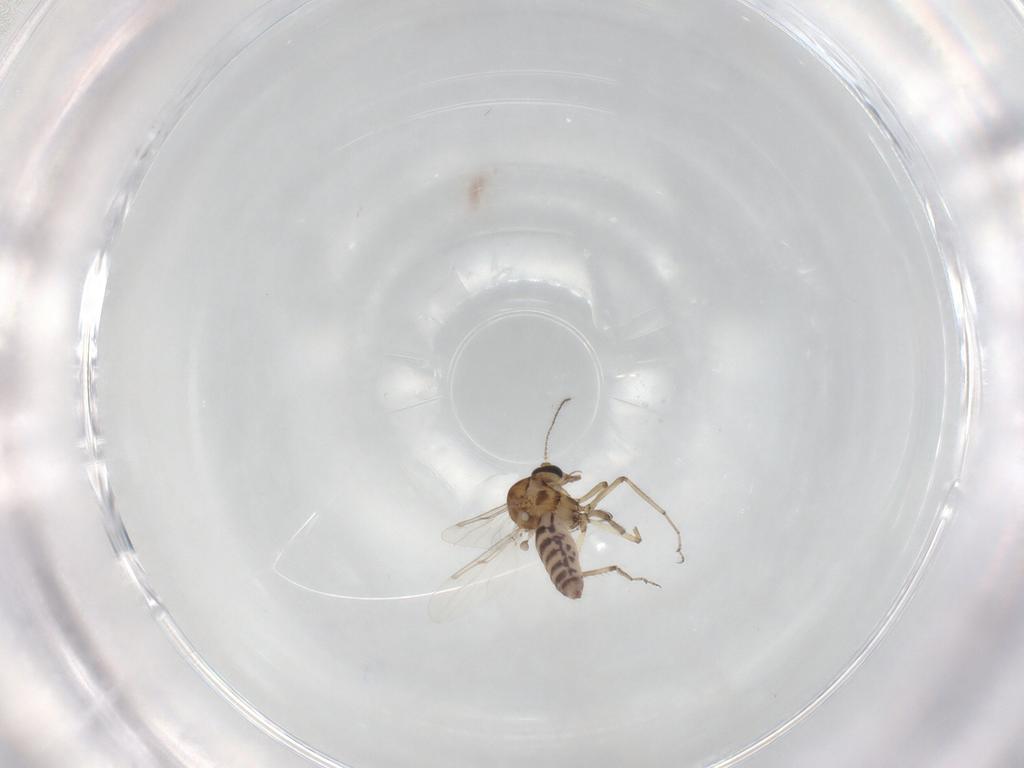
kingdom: Animalia
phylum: Arthropoda
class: Insecta
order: Diptera
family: Ceratopogonidae
